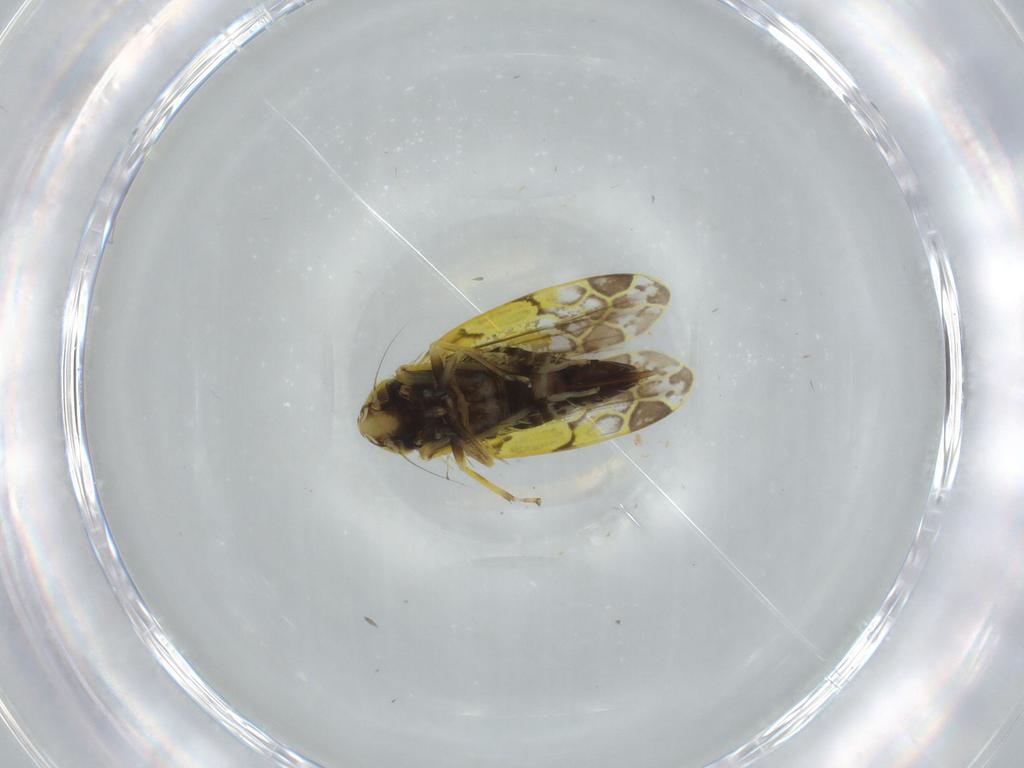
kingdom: Animalia
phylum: Arthropoda
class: Insecta
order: Hemiptera
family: Cicadellidae
